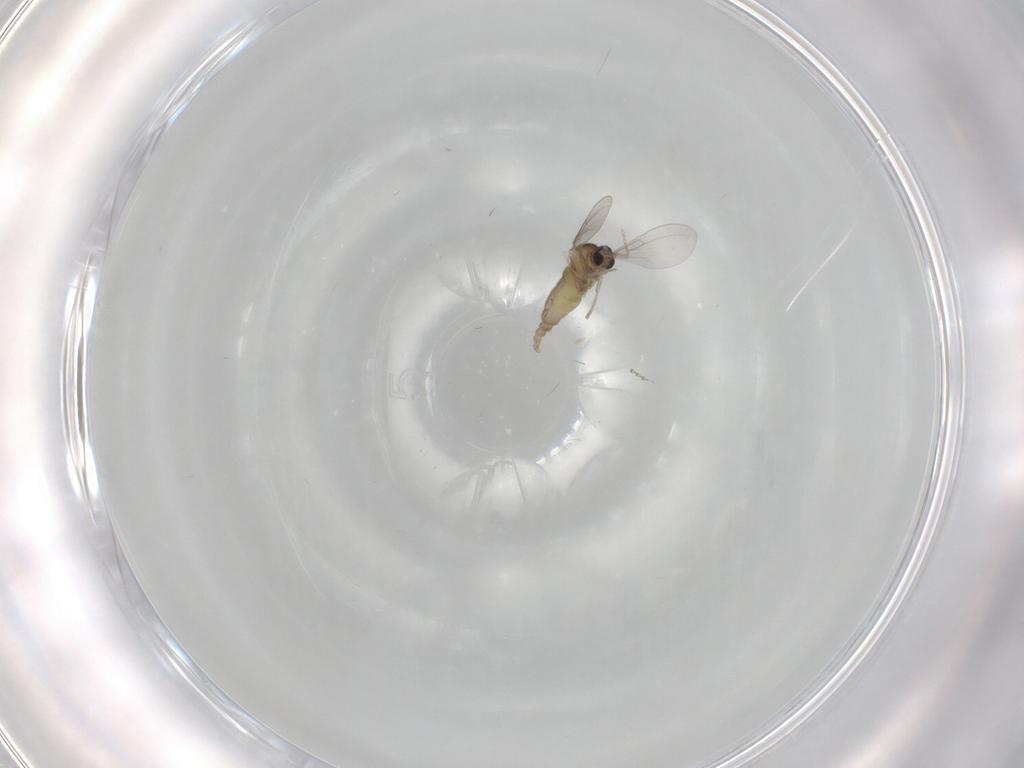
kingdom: Animalia
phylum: Arthropoda
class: Insecta
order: Diptera
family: Cecidomyiidae
